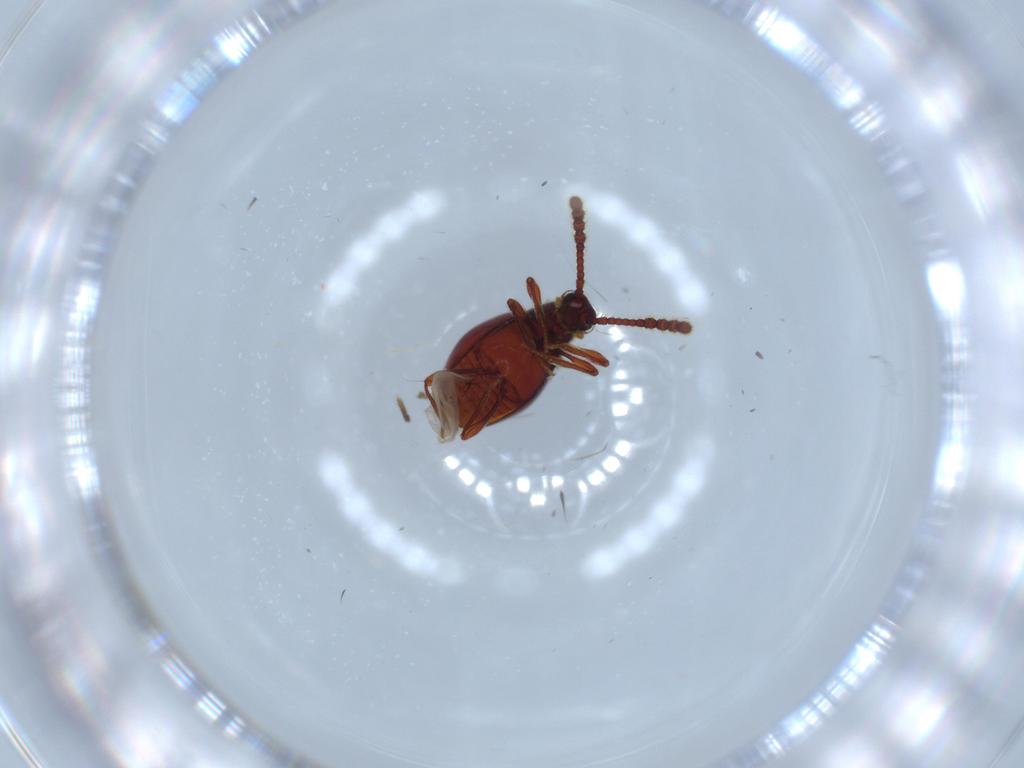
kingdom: Animalia
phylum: Arthropoda
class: Insecta
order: Coleoptera
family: Staphylinidae
